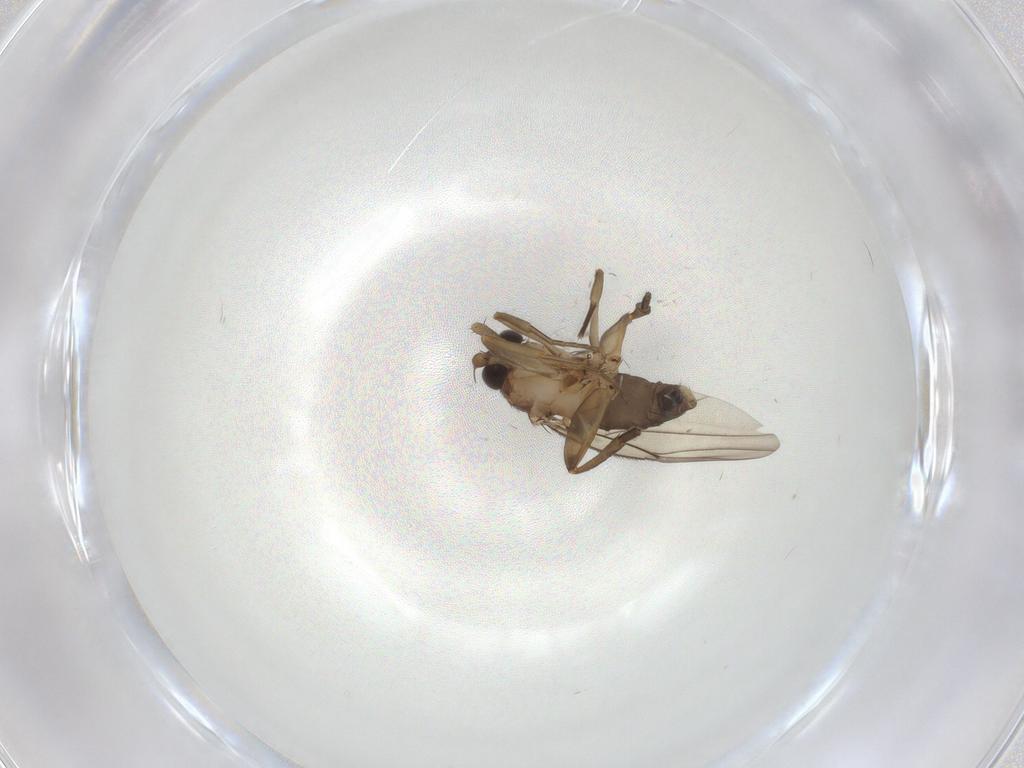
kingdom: Animalia
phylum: Arthropoda
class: Insecta
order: Diptera
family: Phoridae
